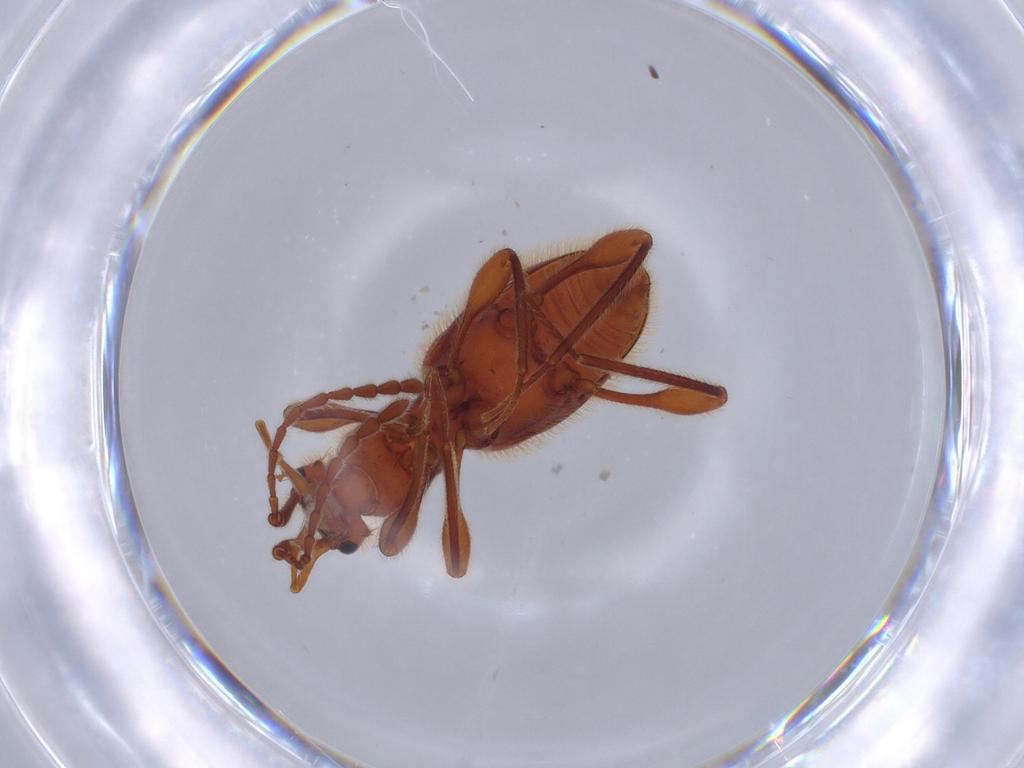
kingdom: Animalia
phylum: Arthropoda
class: Insecta
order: Coleoptera
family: Staphylinidae
